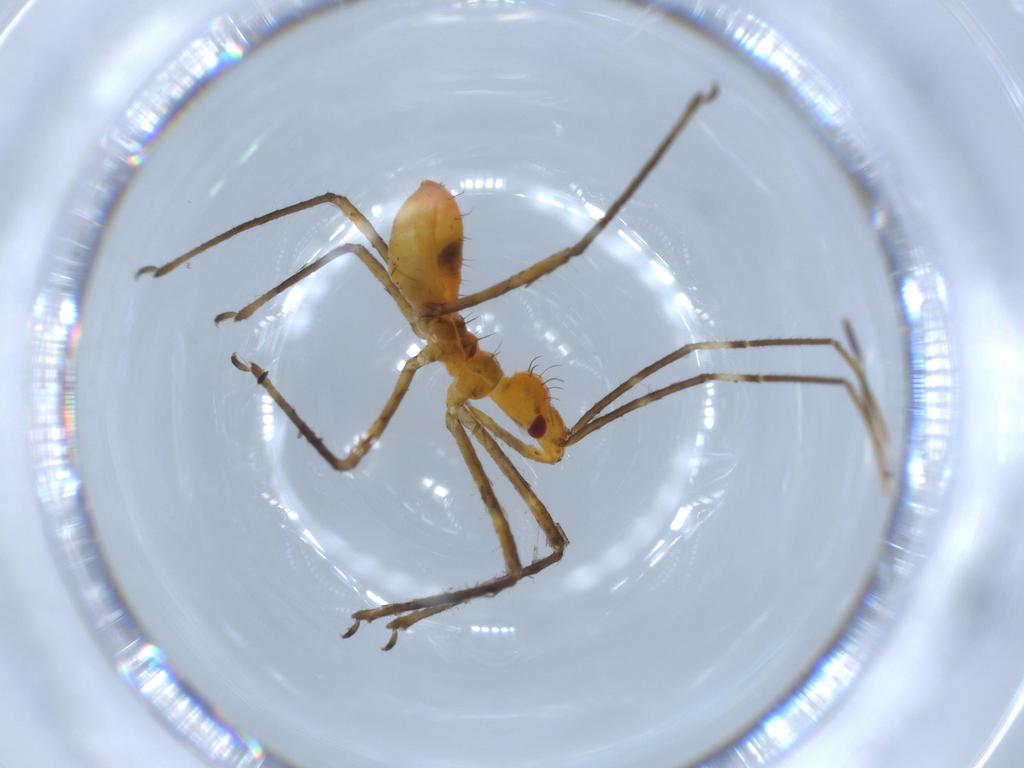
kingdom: Animalia
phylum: Arthropoda
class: Insecta
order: Hemiptera
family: Reduviidae
